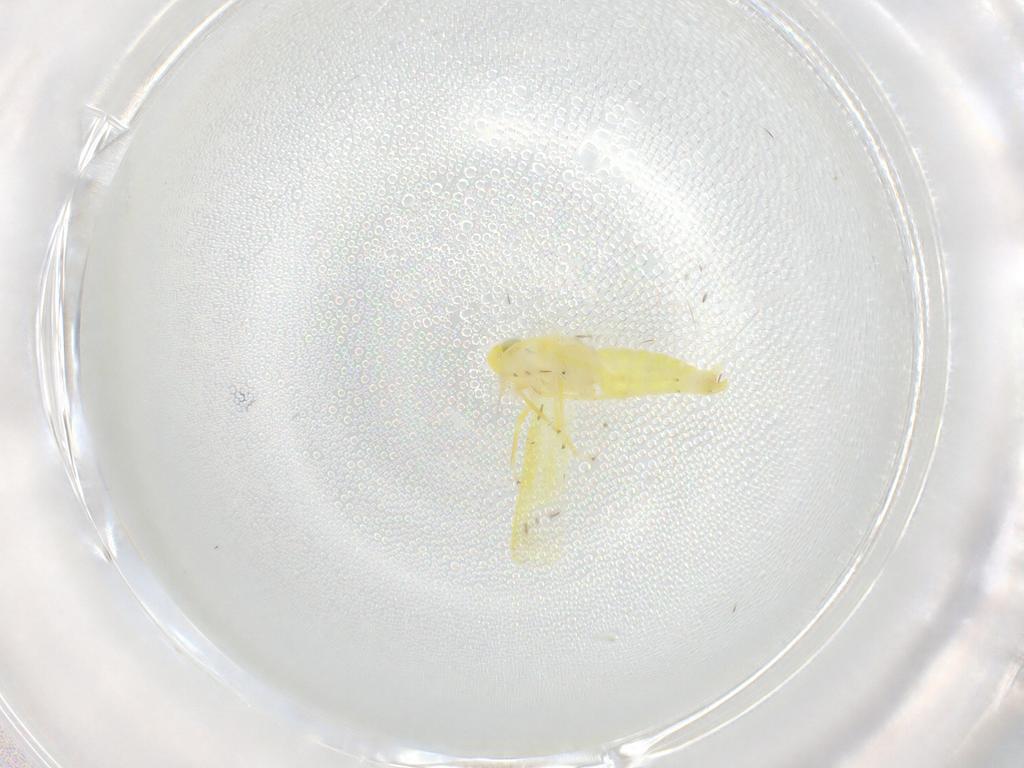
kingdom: Animalia
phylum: Arthropoda
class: Insecta
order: Hemiptera
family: Cicadellidae
